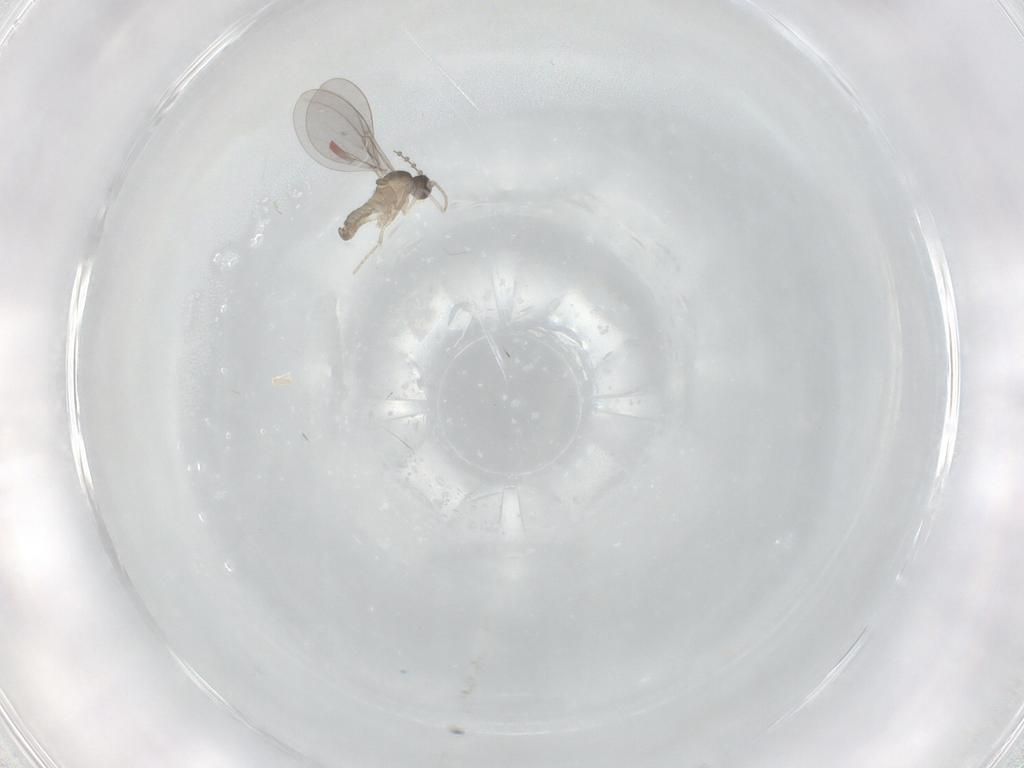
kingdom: Animalia
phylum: Arthropoda
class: Insecta
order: Diptera
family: Cecidomyiidae
